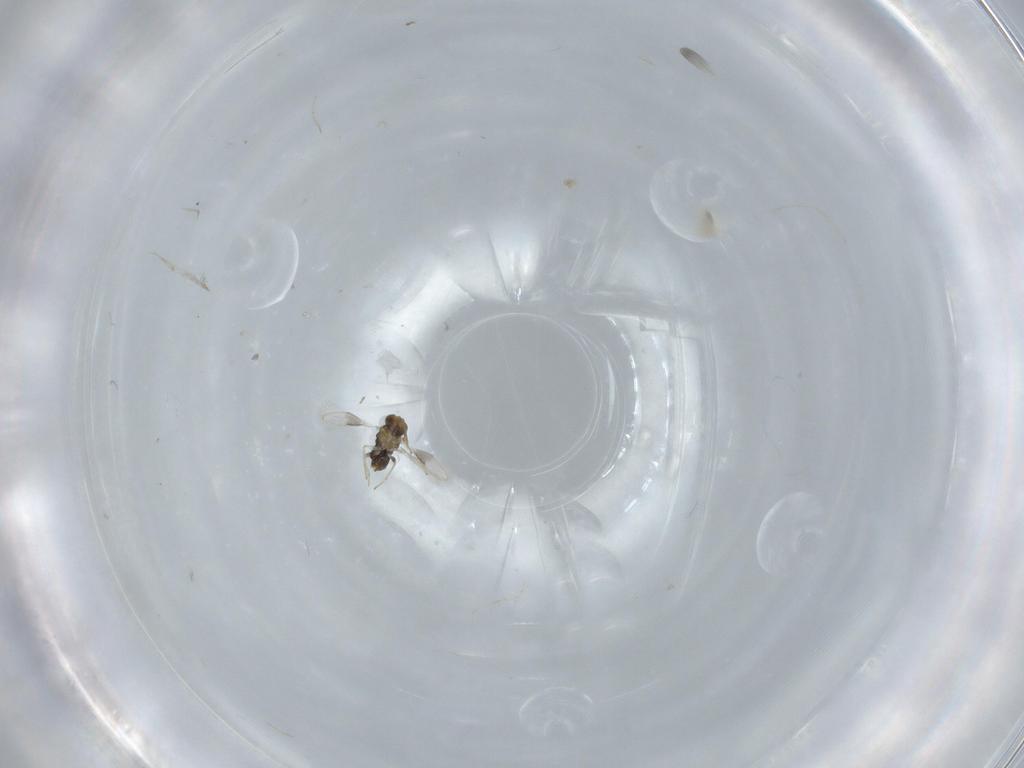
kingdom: Animalia
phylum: Arthropoda
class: Insecta
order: Hymenoptera
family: Aphelinidae
